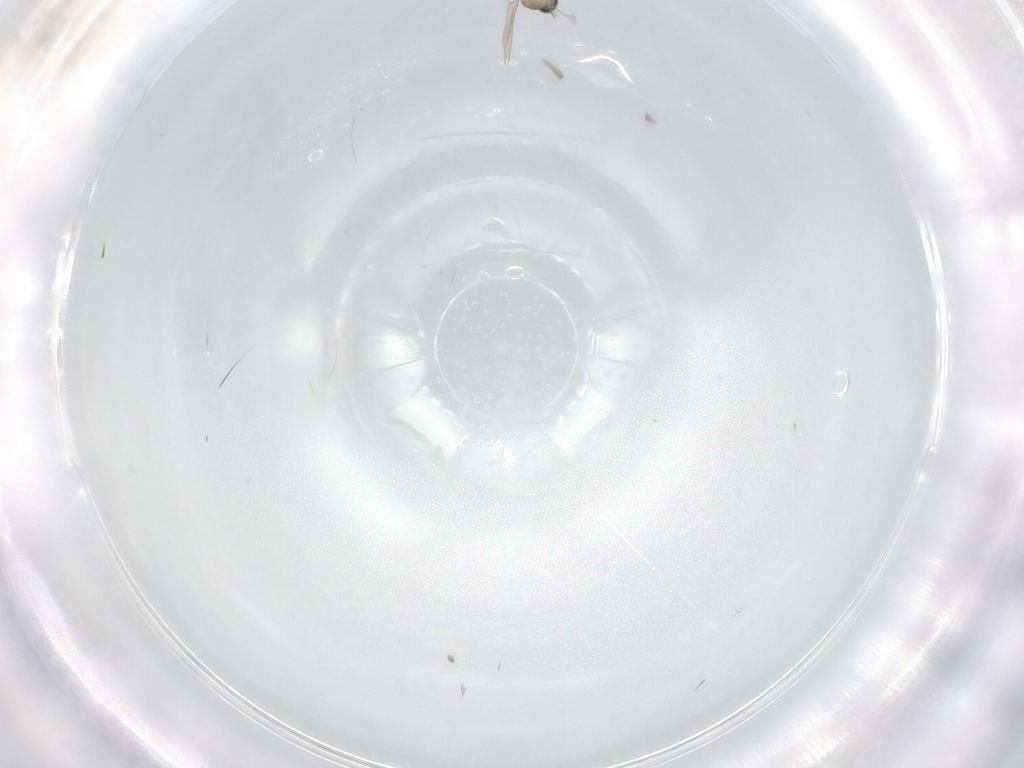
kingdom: Animalia
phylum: Arthropoda
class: Insecta
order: Diptera
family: Cecidomyiidae
